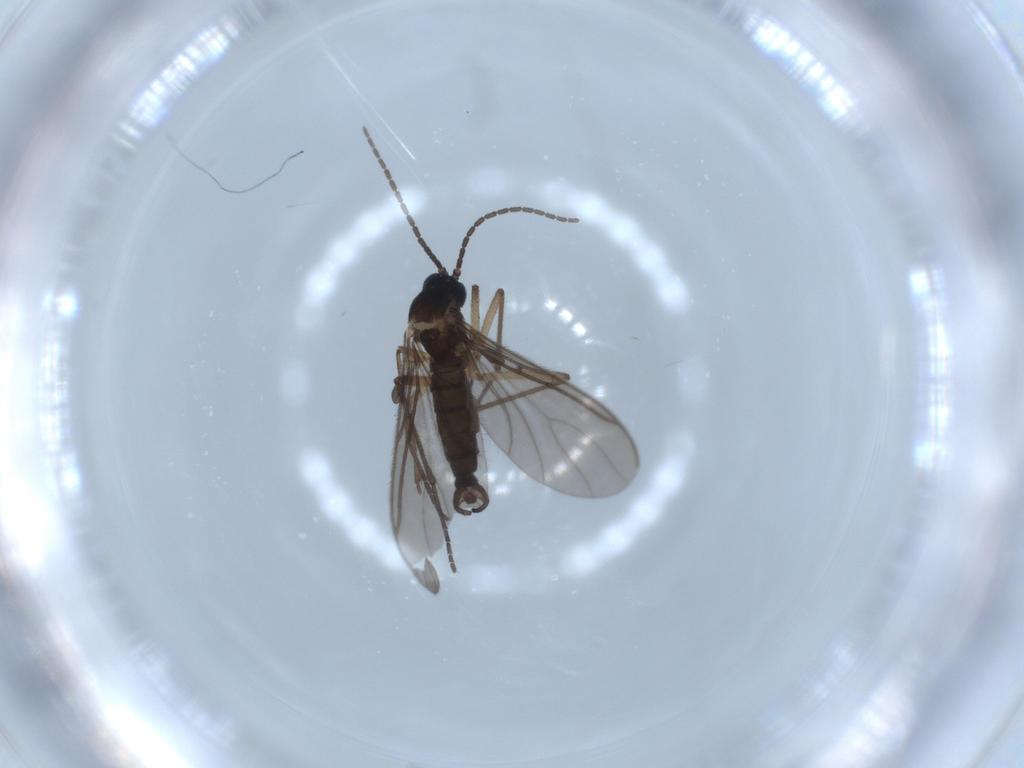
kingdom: Animalia
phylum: Arthropoda
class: Insecta
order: Diptera
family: Sciaridae
